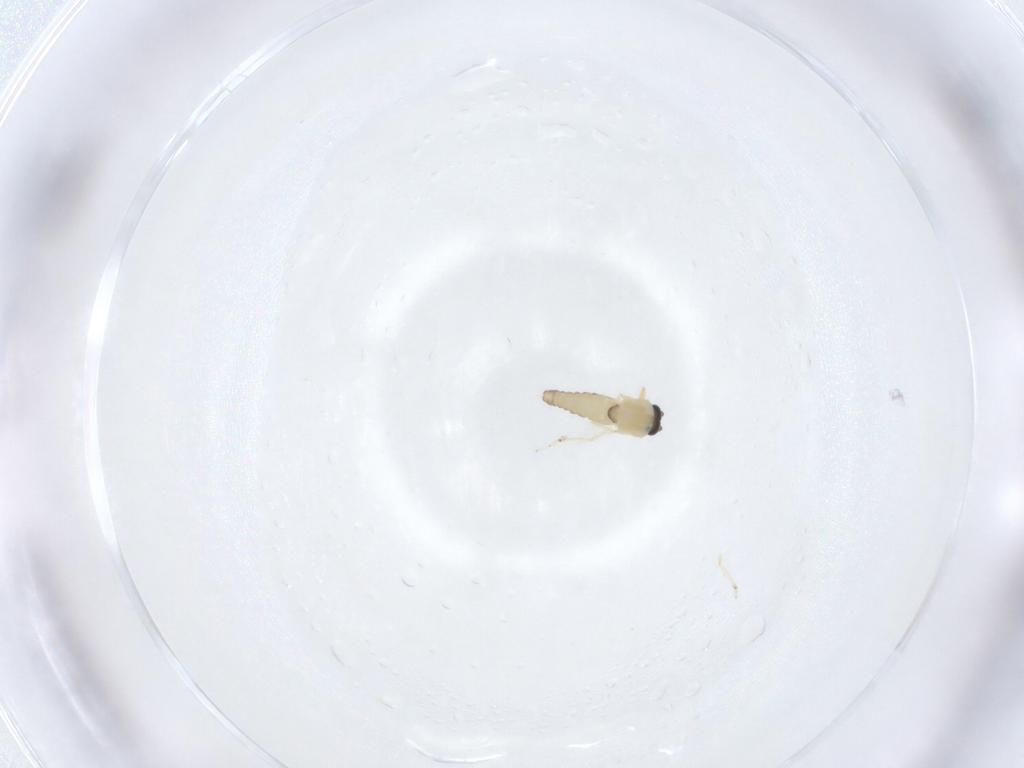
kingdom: Animalia
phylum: Arthropoda
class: Insecta
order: Diptera
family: Ceratopogonidae
